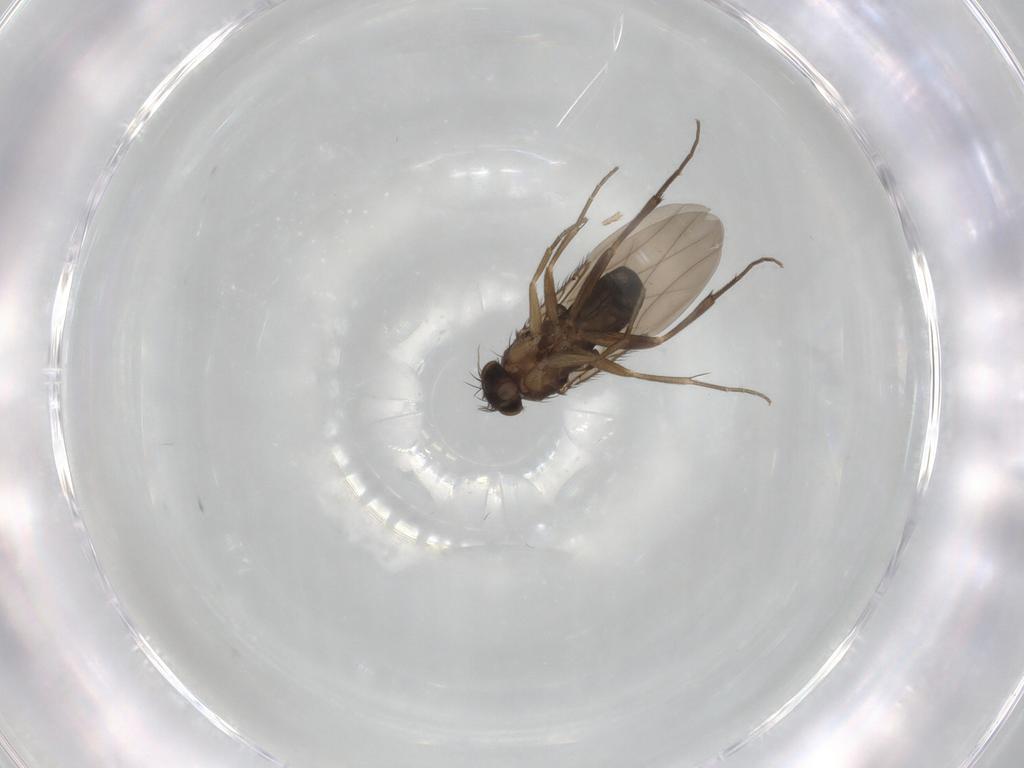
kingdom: Animalia
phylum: Arthropoda
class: Insecta
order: Diptera
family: Phoridae
